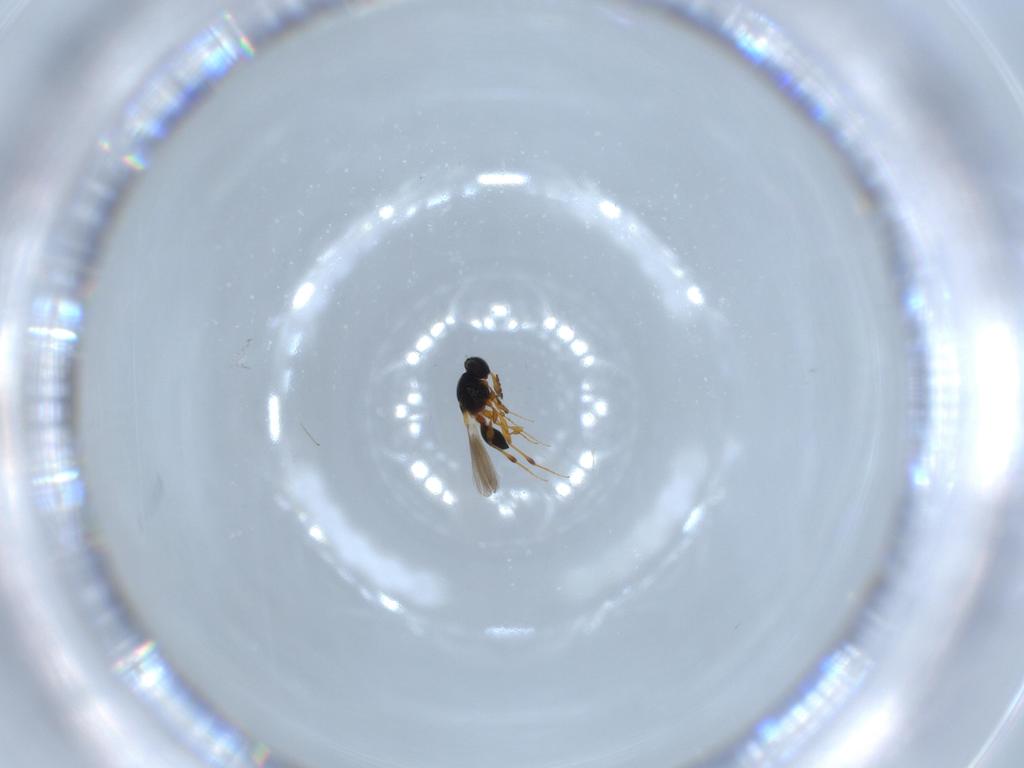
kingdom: Animalia
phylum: Arthropoda
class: Insecta
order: Hymenoptera
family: Platygastridae
